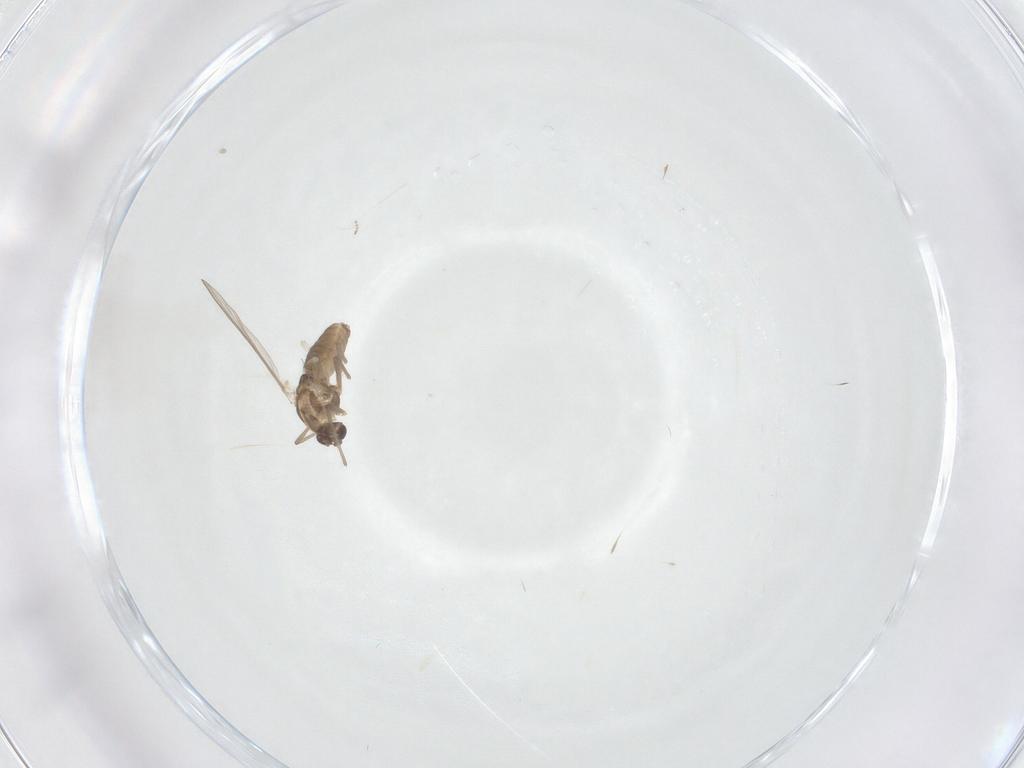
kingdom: Animalia
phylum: Arthropoda
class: Insecta
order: Diptera
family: Chironomidae
